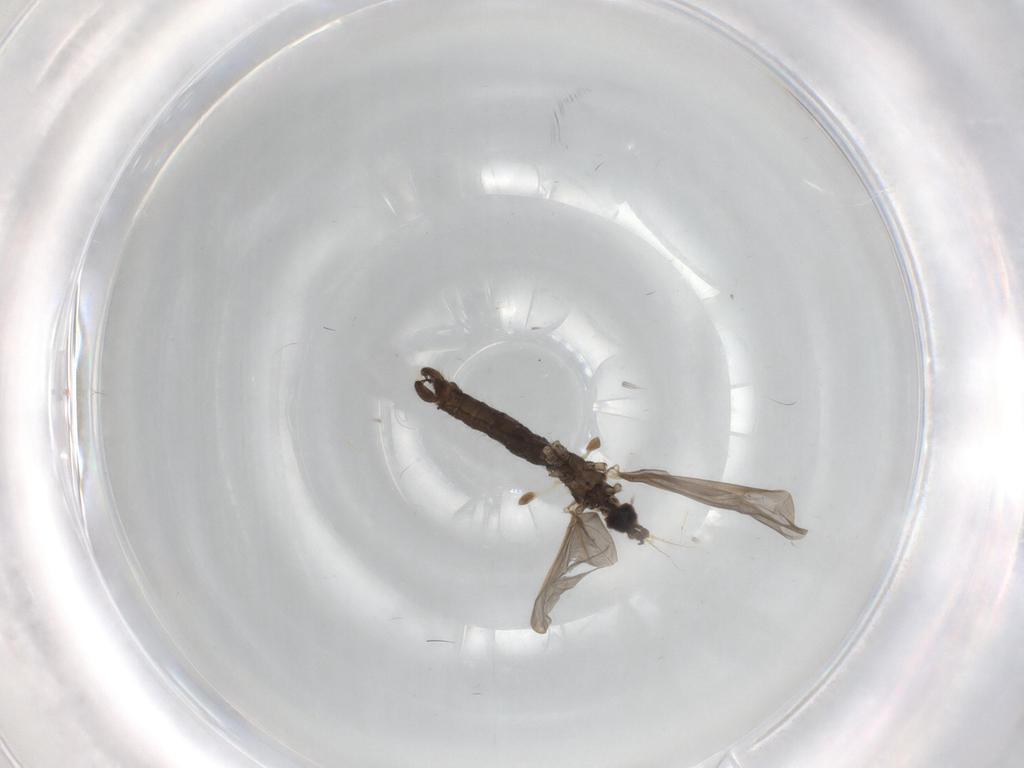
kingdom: Animalia
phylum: Arthropoda
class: Insecta
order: Diptera
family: Limoniidae
